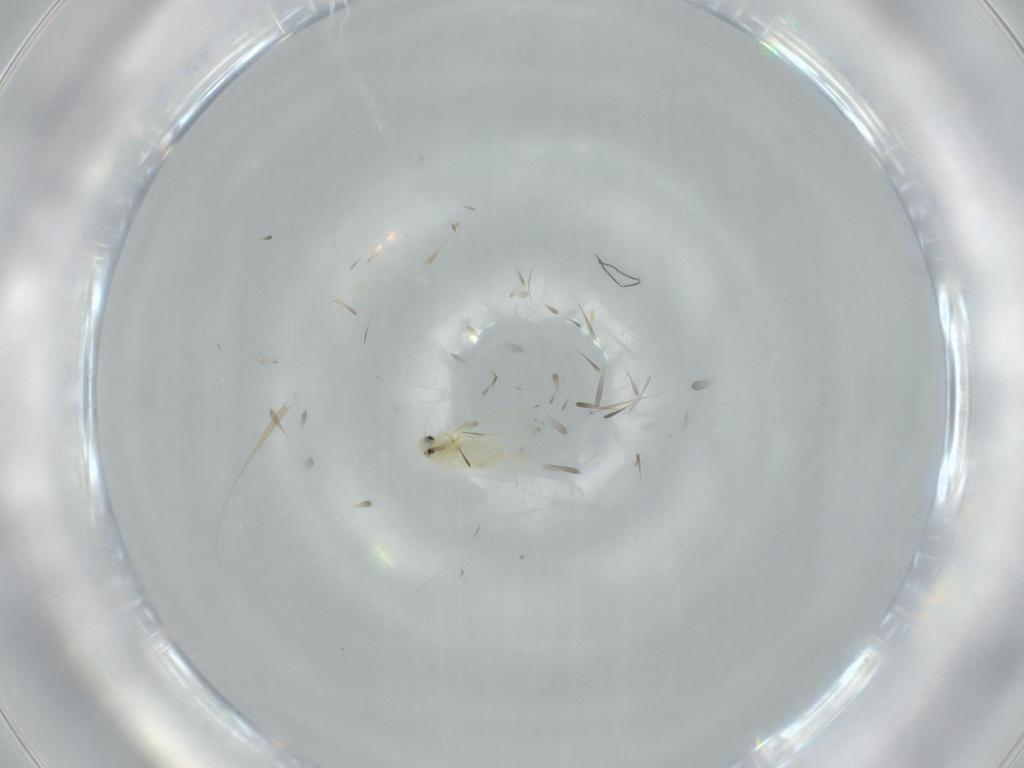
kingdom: Animalia
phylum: Arthropoda
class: Insecta
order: Hemiptera
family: Aleyrodidae
